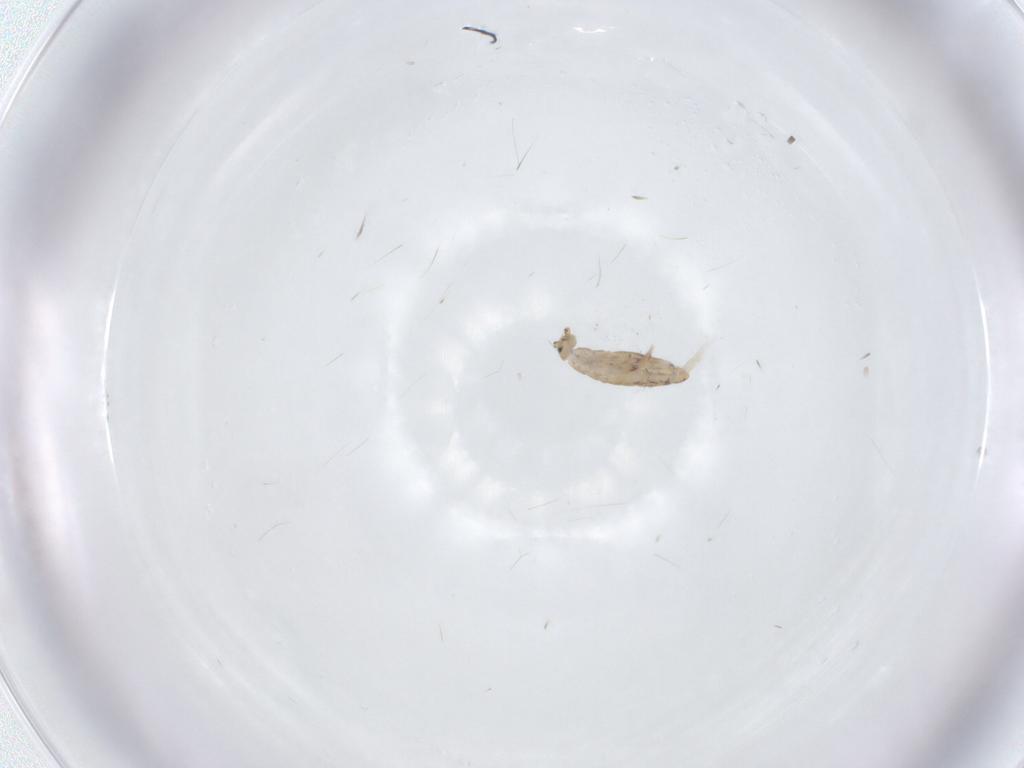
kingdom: Animalia
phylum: Arthropoda
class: Collembola
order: Entomobryomorpha
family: Entomobryidae
